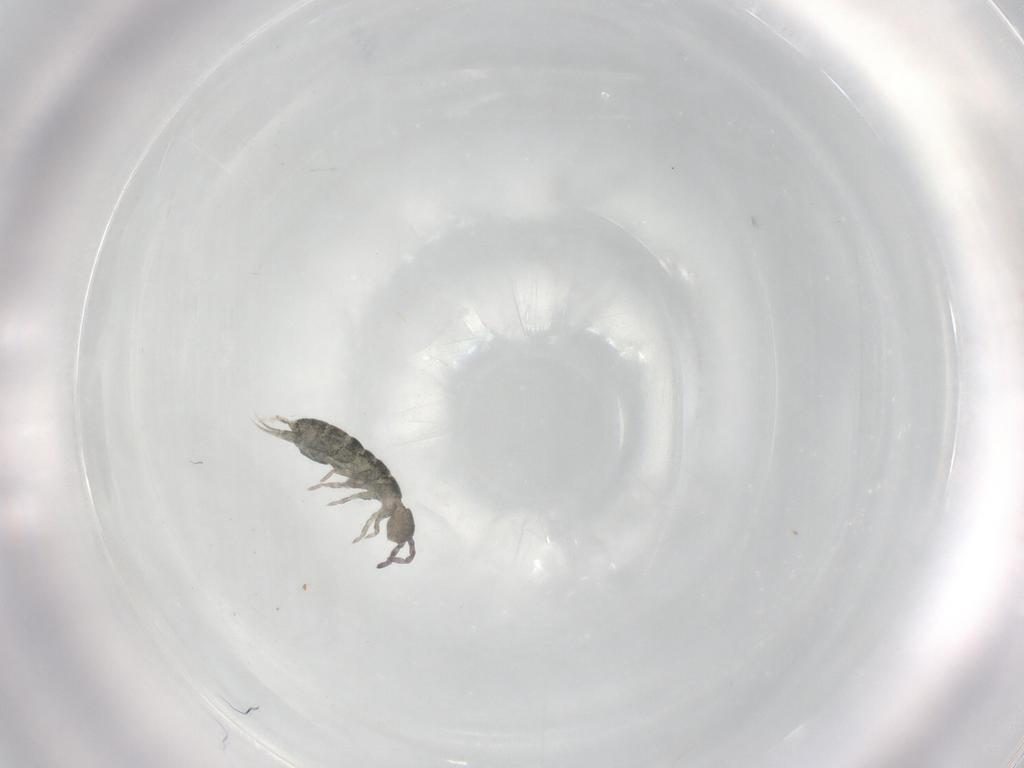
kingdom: Animalia
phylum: Arthropoda
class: Collembola
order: Entomobryomorpha
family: Isotomidae
